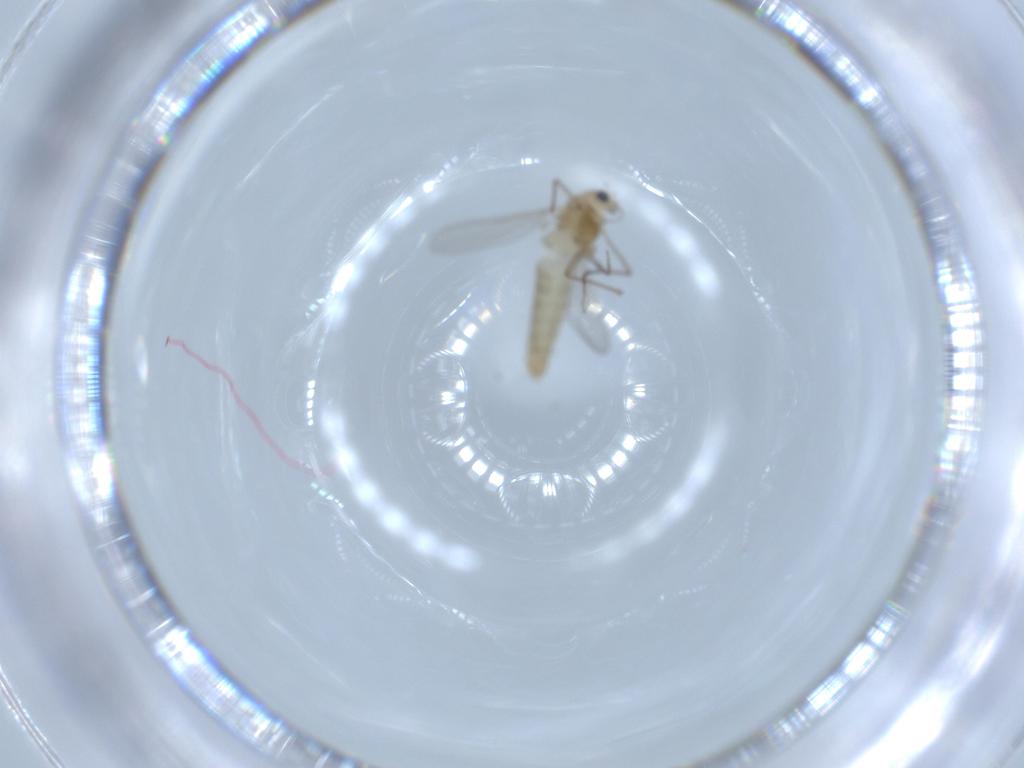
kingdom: Animalia
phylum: Arthropoda
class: Insecta
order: Diptera
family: Chironomidae
